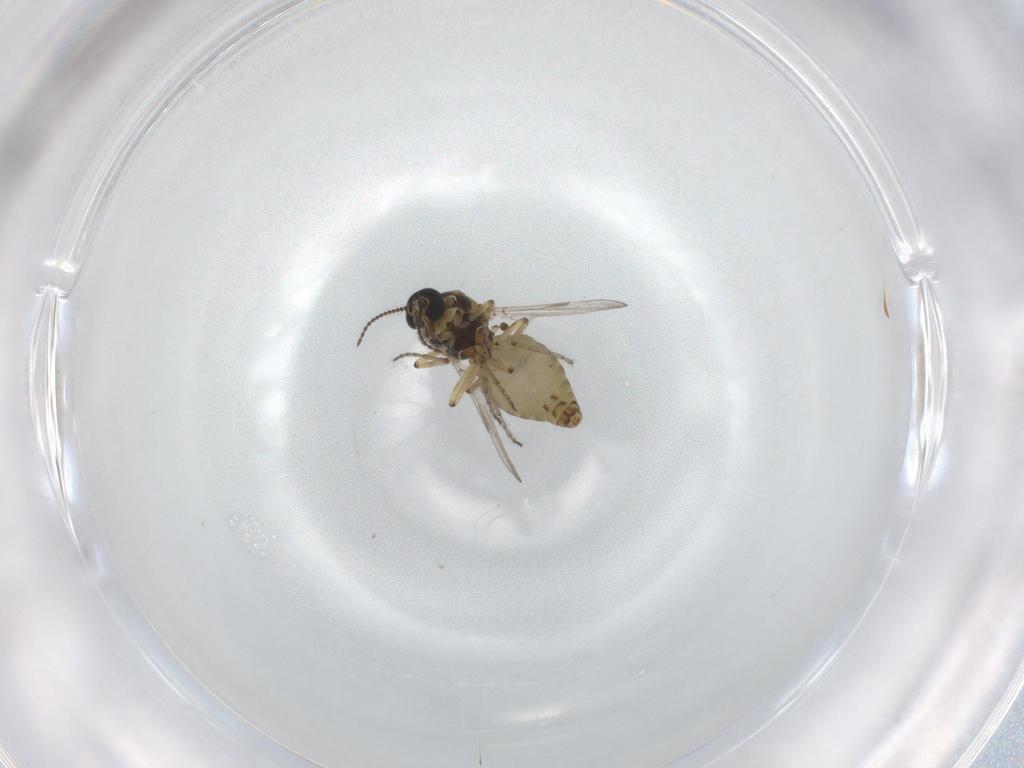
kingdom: Animalia
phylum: Arthropoda
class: Insecta
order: Diptera
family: Ceratopogonidae
